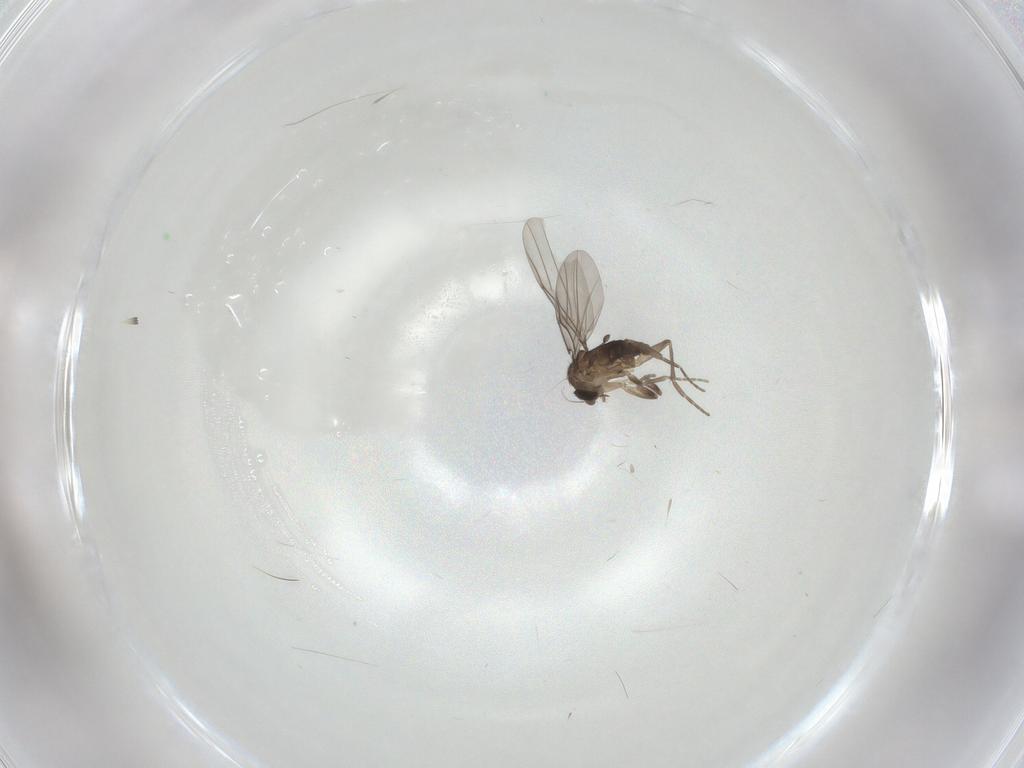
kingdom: Animalia
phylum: Arthropoda
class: Insecta
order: Diptera
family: Phoridae
